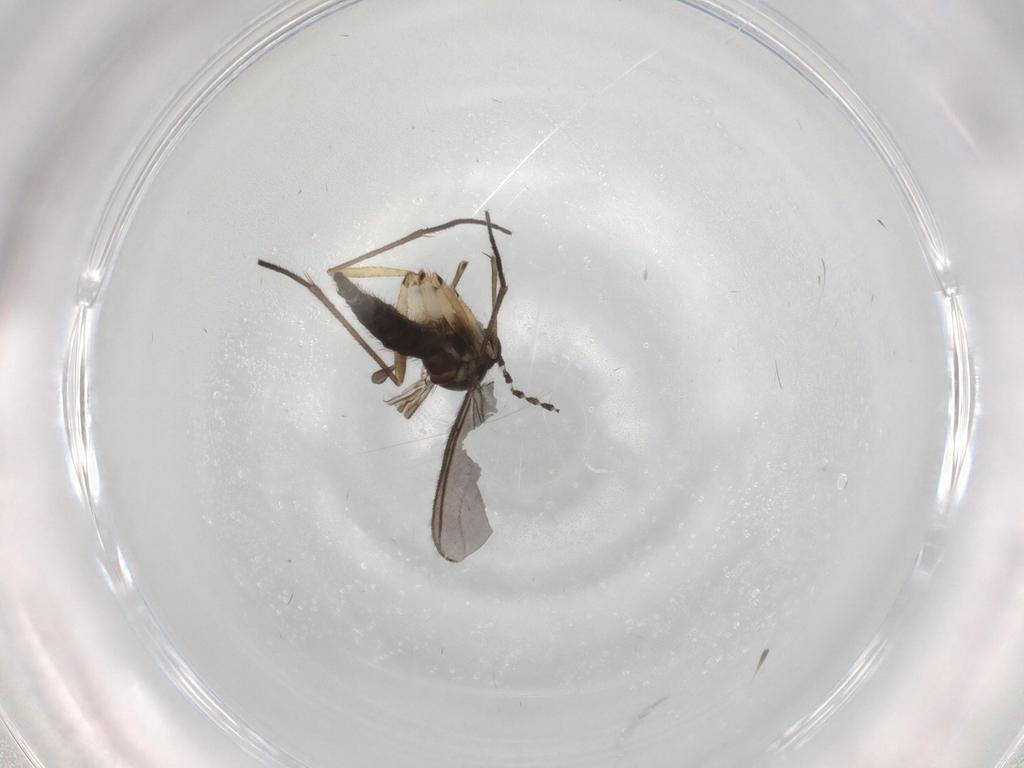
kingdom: Animalia
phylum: Arthropoda
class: Insecta
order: Diptera
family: Sciaridae
